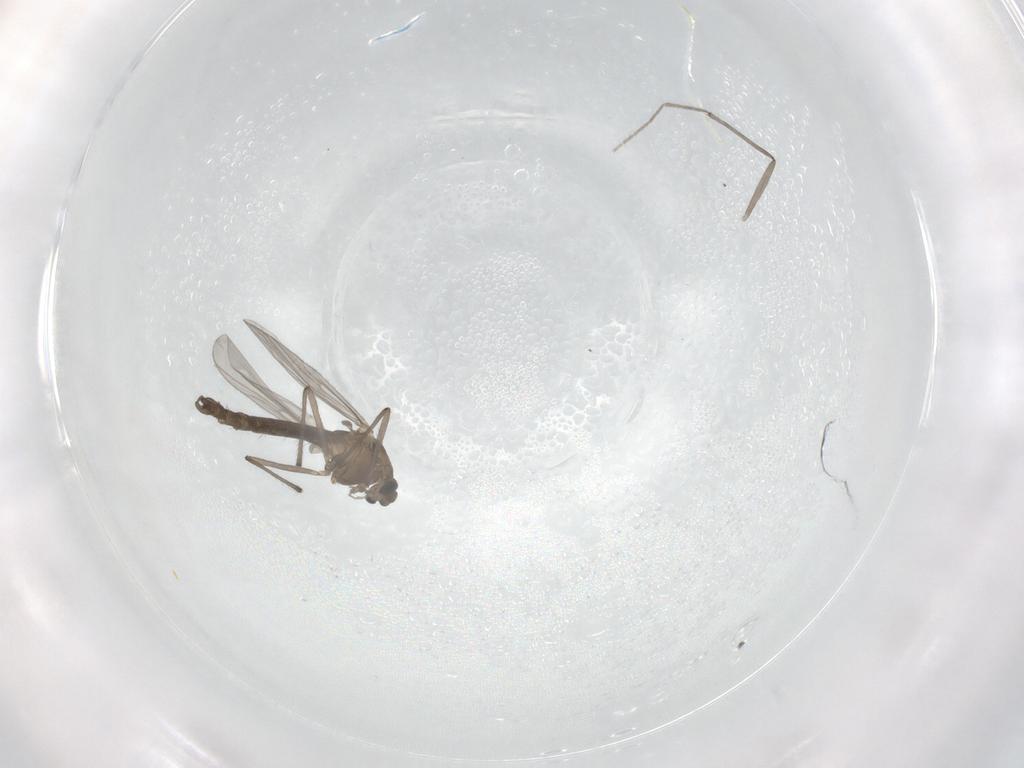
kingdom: Animalia
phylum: Arthropoda
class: Insecta
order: Diptera
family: Chironomidae
